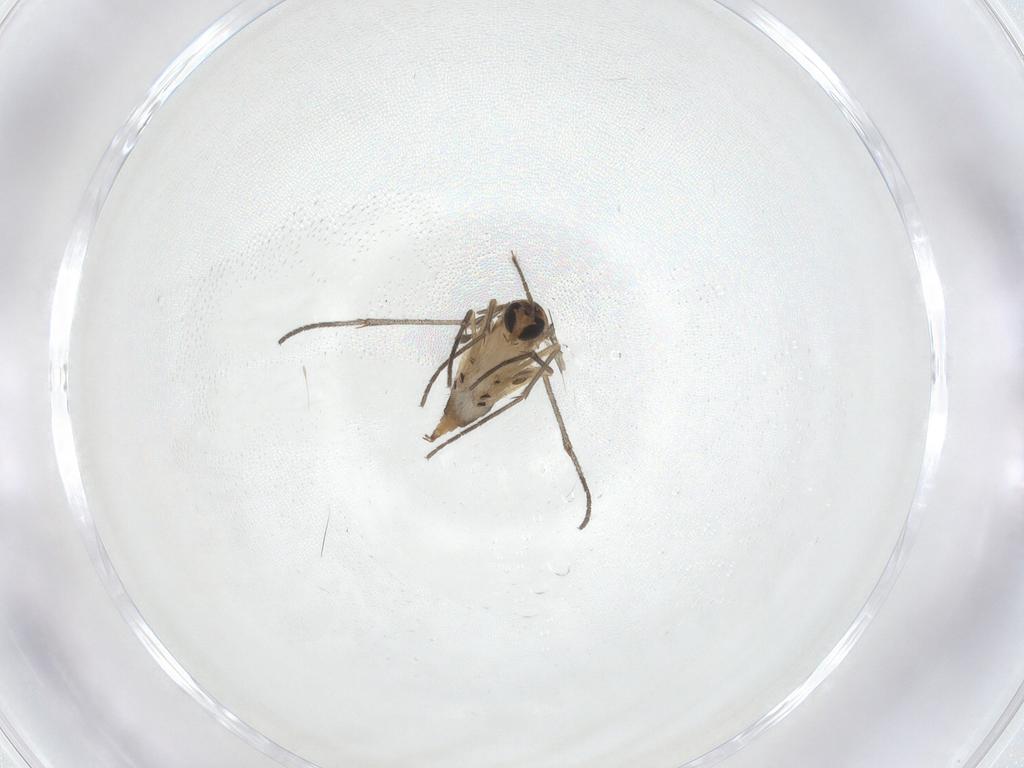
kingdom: Animalia
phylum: Arthropoda
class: Insecta
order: Diptera
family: Sciaridae
